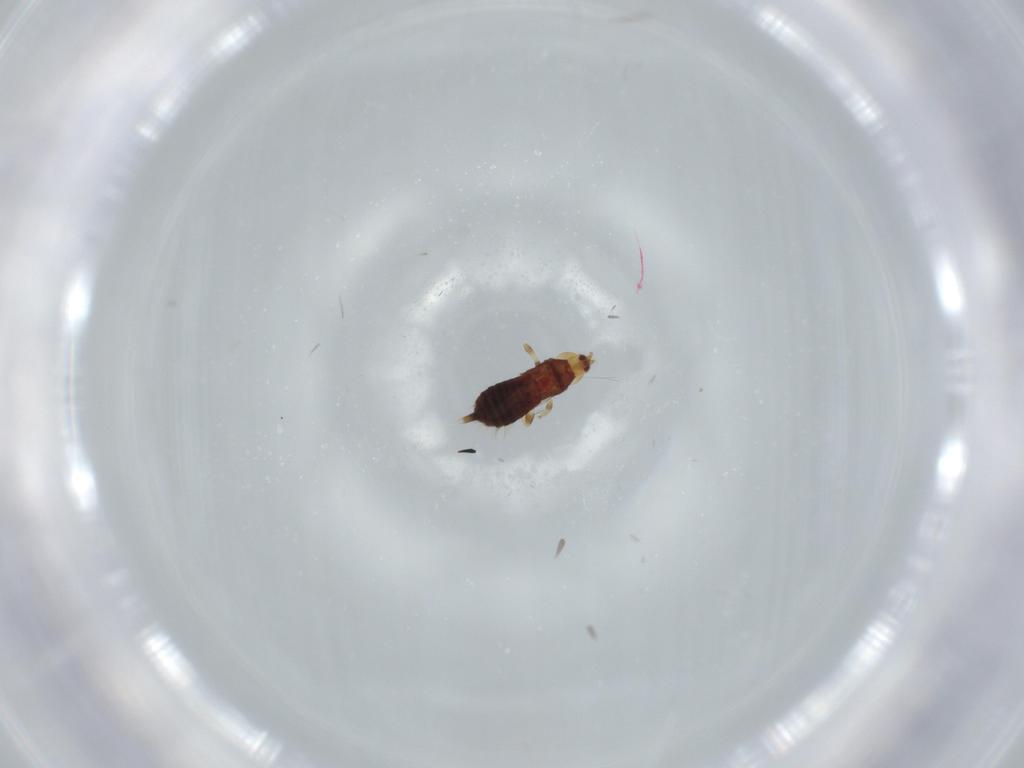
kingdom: Animalia
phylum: Arthropoda
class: Insecta
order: Thysanoptera
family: Phlaeothripidae
